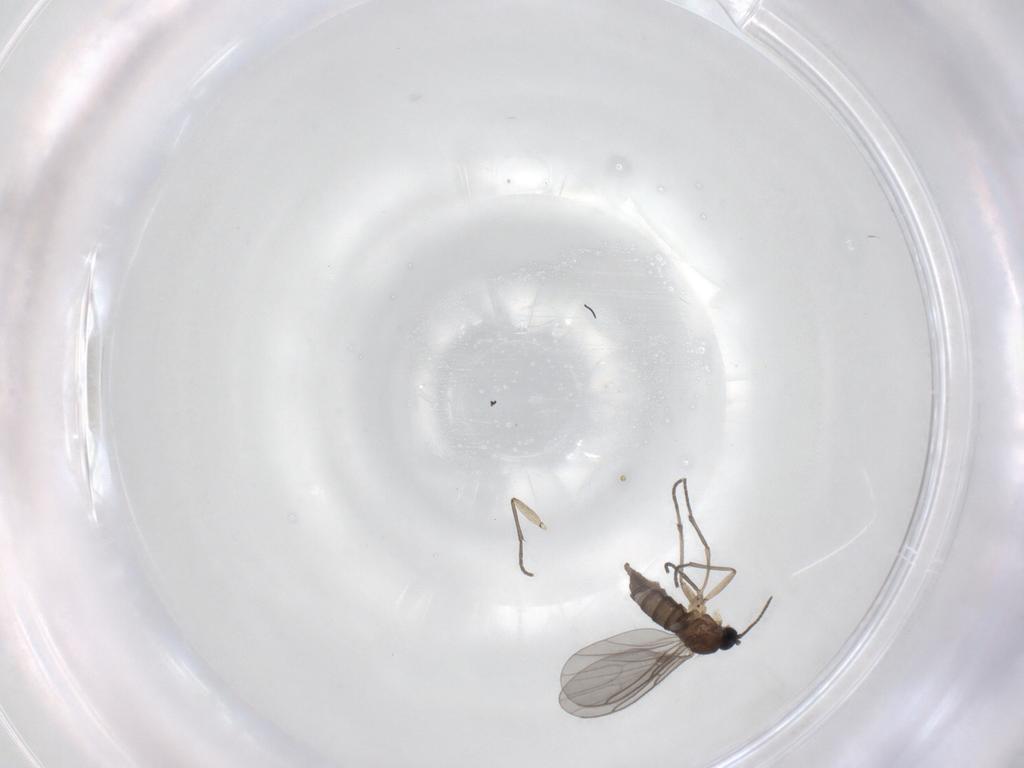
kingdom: Animalia
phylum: Arthropoda
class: Insecta
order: Diptera
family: Sciaridae
